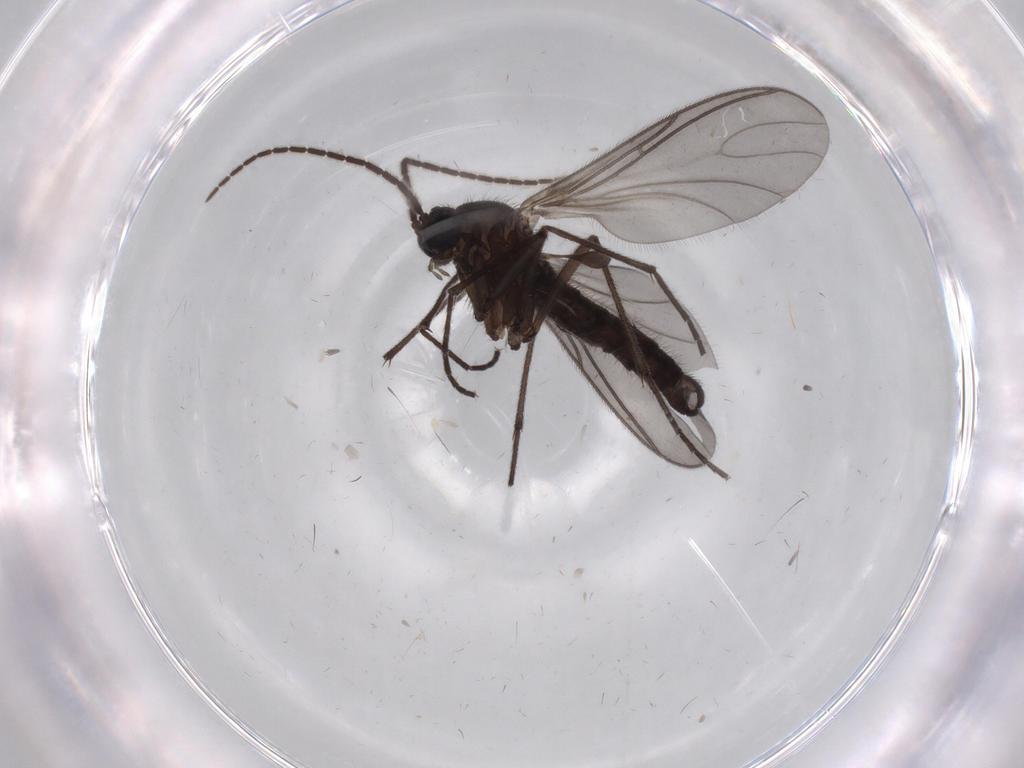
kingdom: Animalia
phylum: Arthropoda
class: Insecta
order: Diptera
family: Sciaridae
